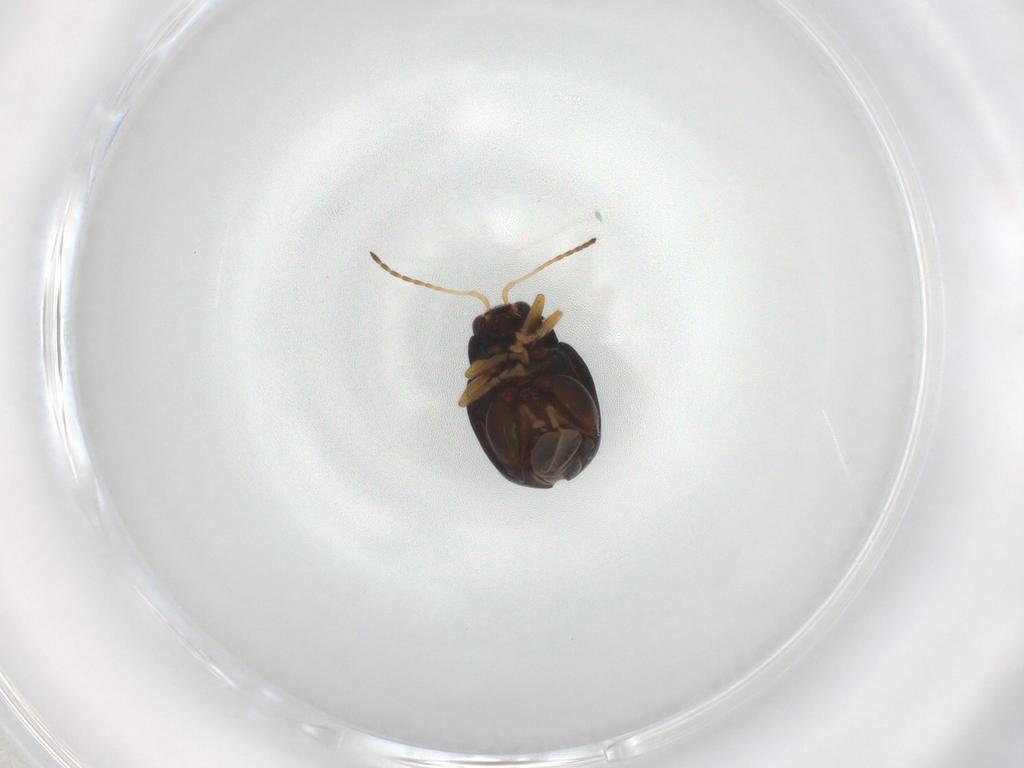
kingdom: Animalia
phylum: Arthropoda
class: Insecta
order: Coleoptera
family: Chrysomelidae
